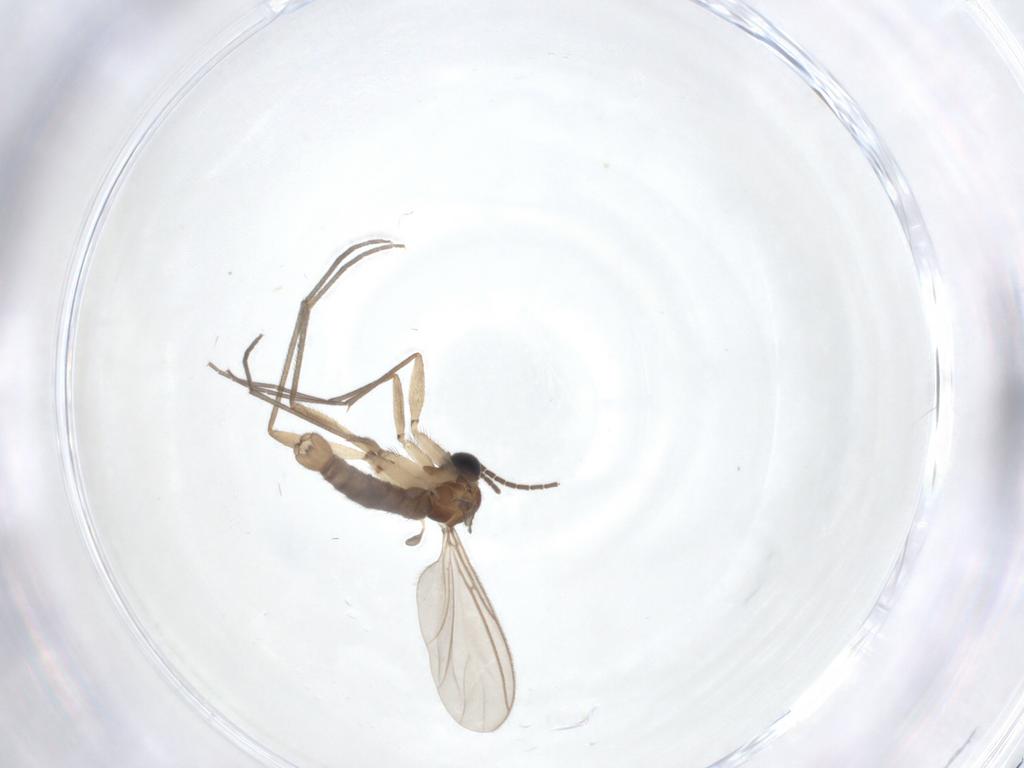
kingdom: Animalia
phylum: Arthropoda
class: Insecta
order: Diptera
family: Sciaridae
